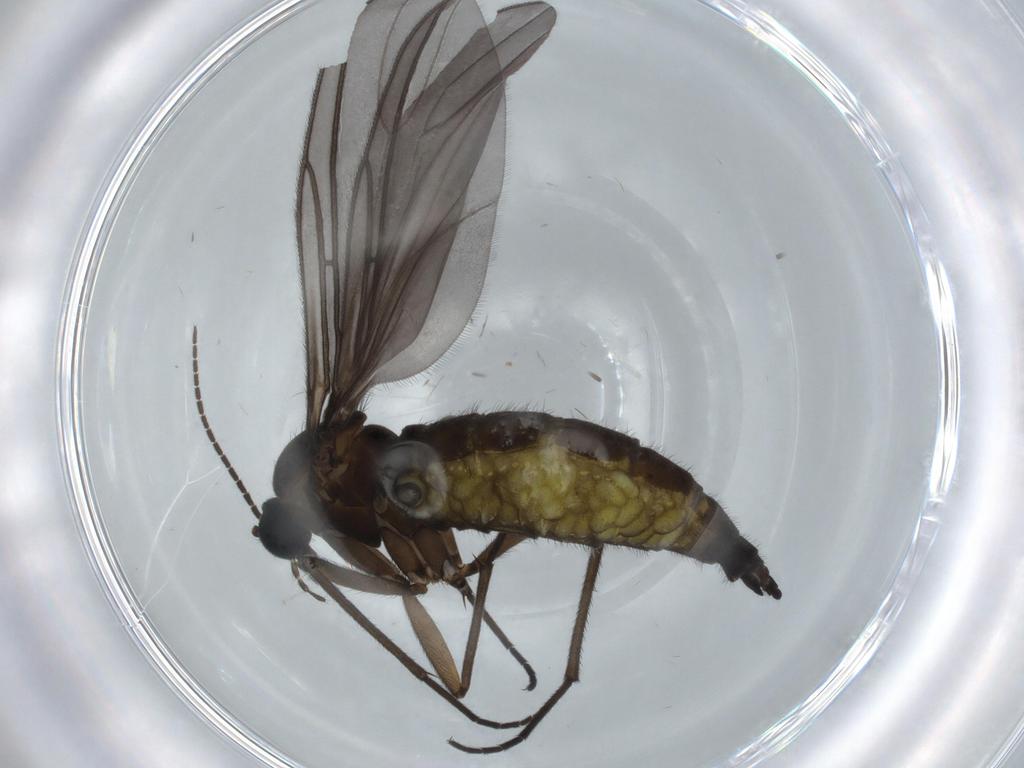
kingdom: Animalia
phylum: Arthropoda
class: Insecta
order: Diptera
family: Sciaridae
